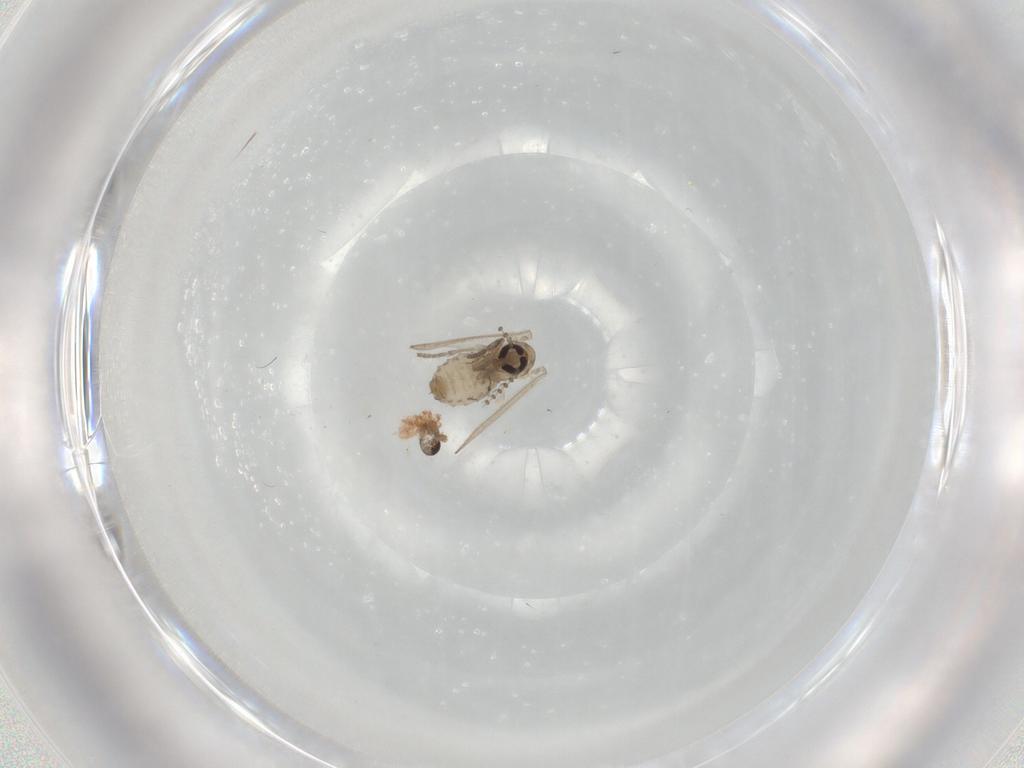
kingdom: Animalia
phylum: Arthropoda
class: Insecta
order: Diptera
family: Psychodidae
